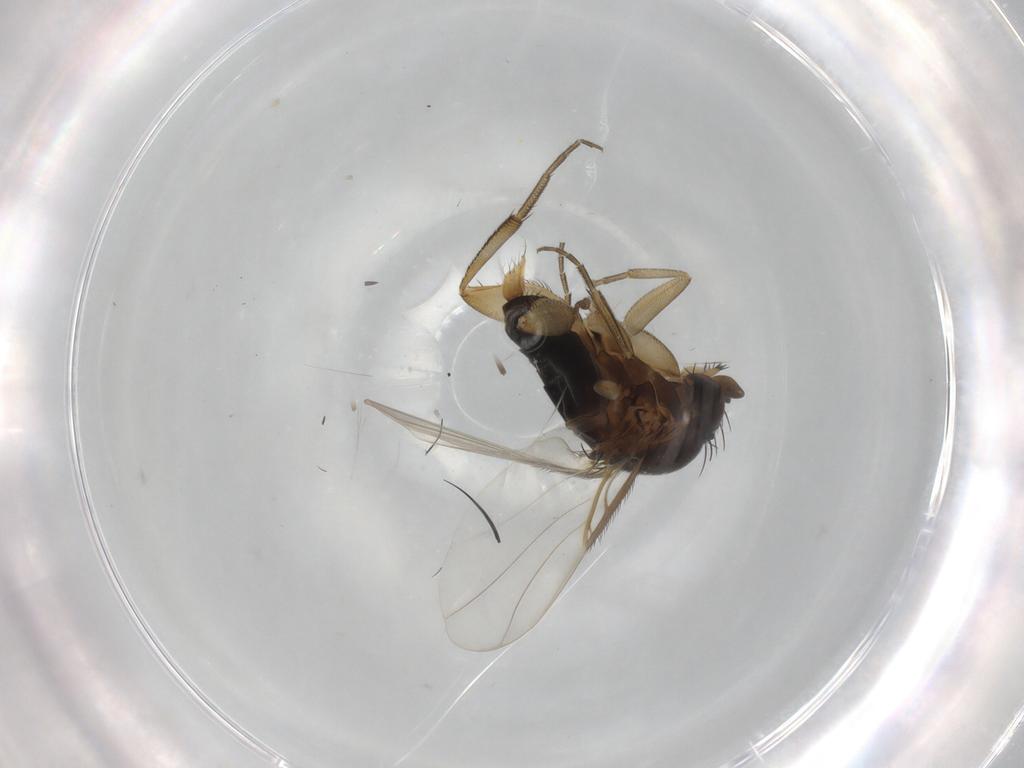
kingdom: Animalia
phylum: Arthropoda
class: Insecta
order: Diptera
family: Phoridae
